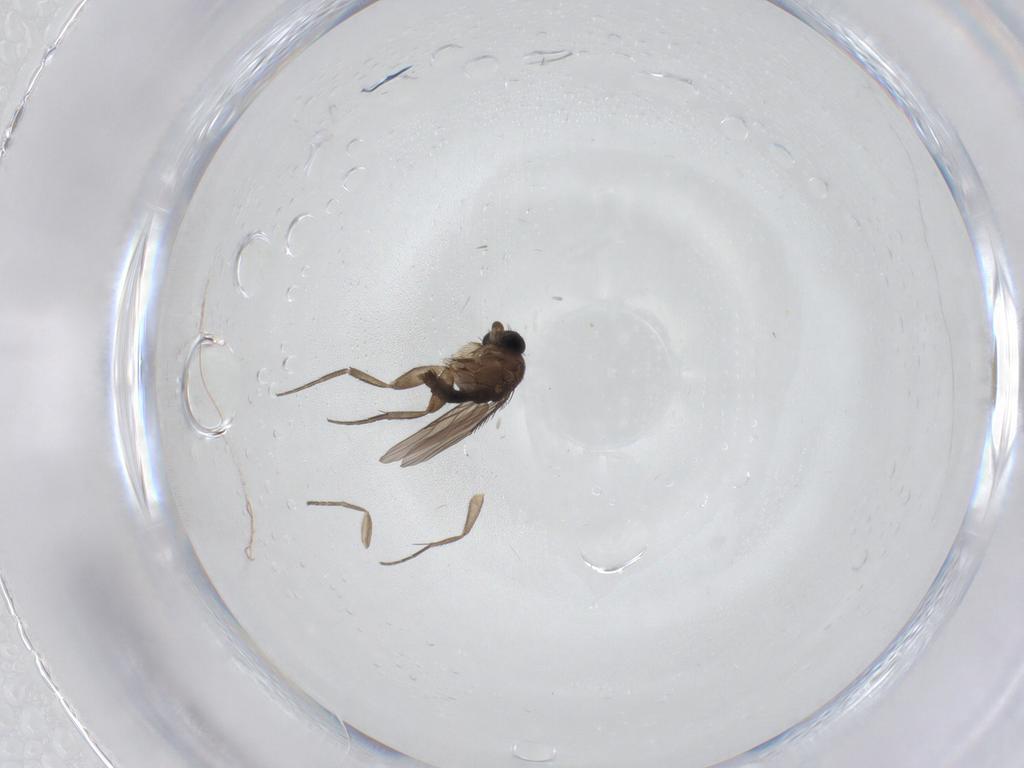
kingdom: Animalia
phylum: Arthropoda
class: Insecta
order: Diptera
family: Phoridae
